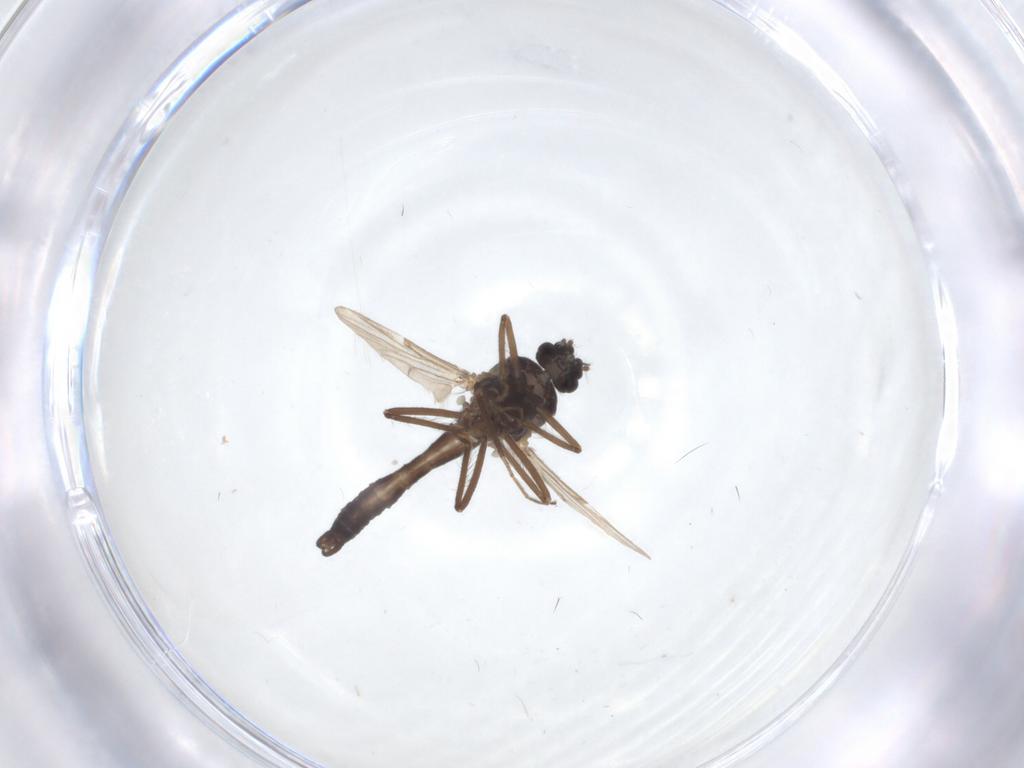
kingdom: Animalia
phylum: Arthropoda
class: Insecta
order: Diptera
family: Ceratopogonidae
